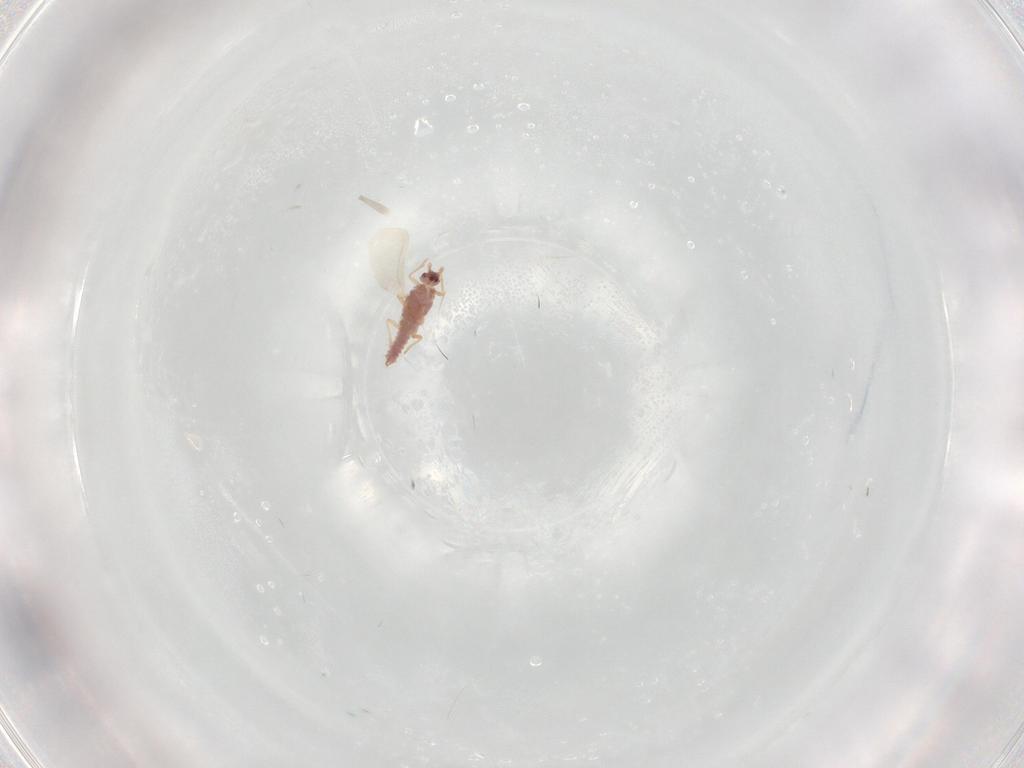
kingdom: Animalia
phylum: Arthropoda
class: Insecta
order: Hemiptera
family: Pseudococcidae
